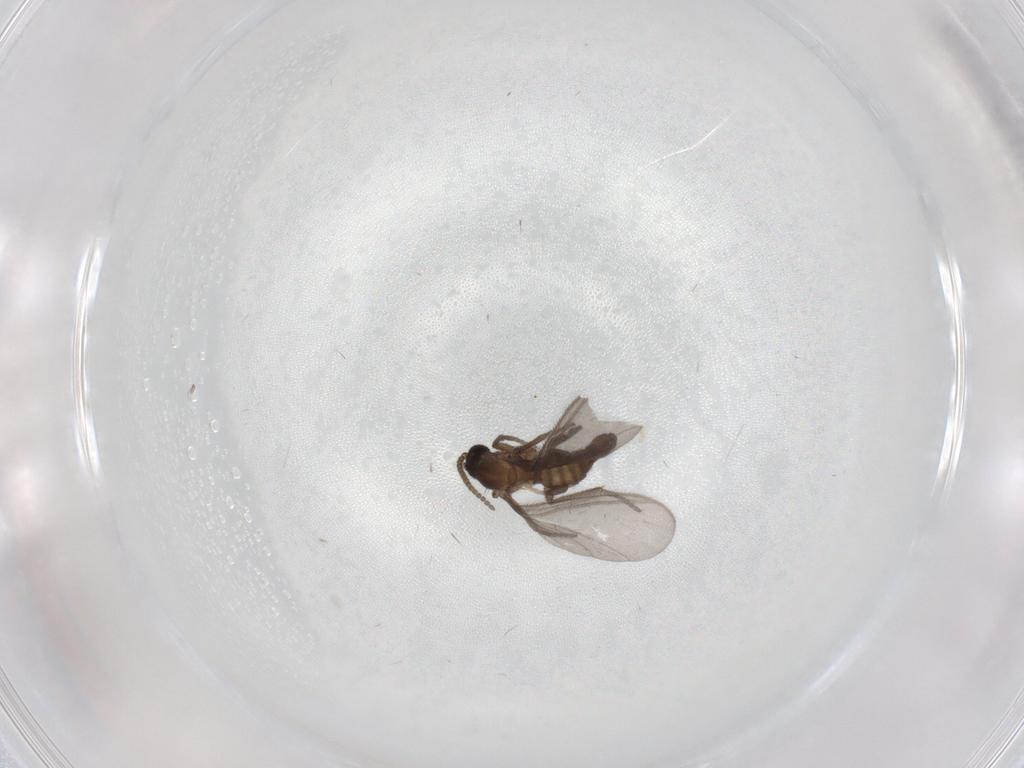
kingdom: Animalia
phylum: Arthropoda
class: Insecta
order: Diptera
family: Sciaridae
